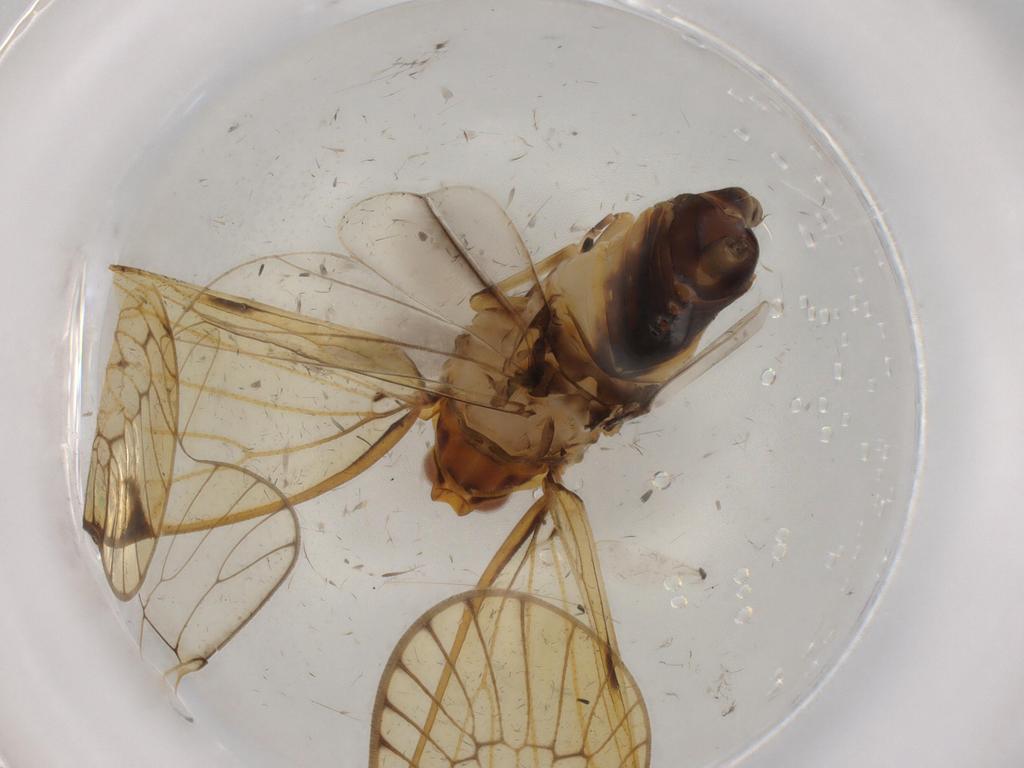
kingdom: Animalia
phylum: Arthropoda
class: Insecta
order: Hemiptera
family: Cixiidae
